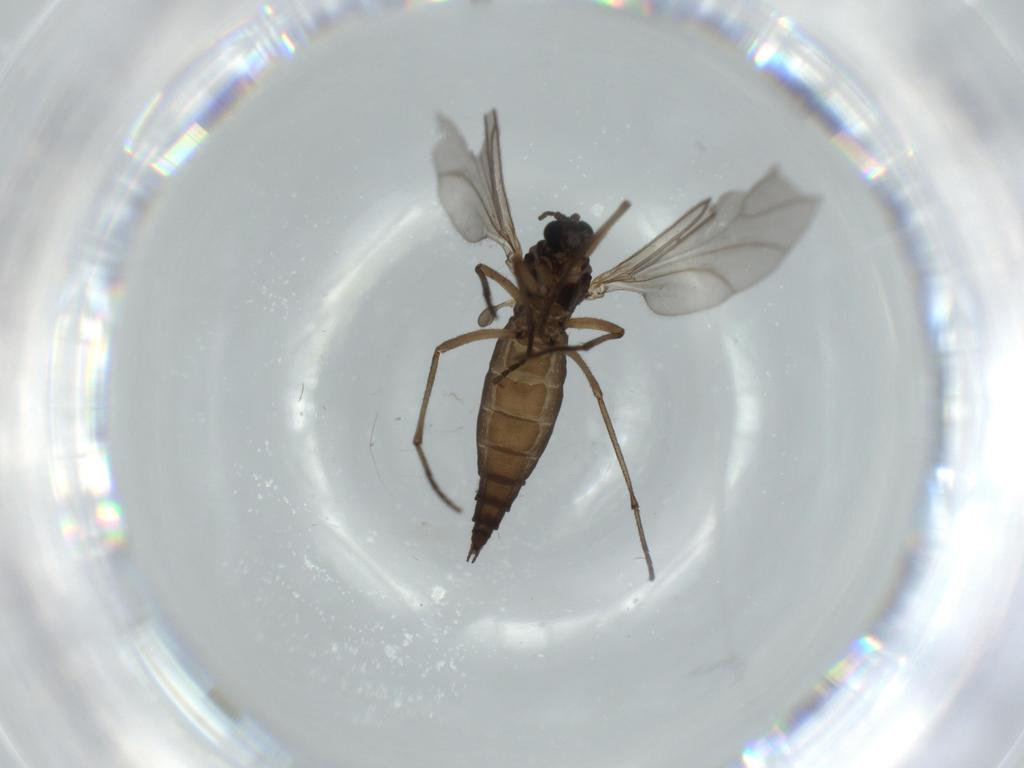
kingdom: Animalia
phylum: Arthropoda
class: Insecta
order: Diptera
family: Sciaridae
